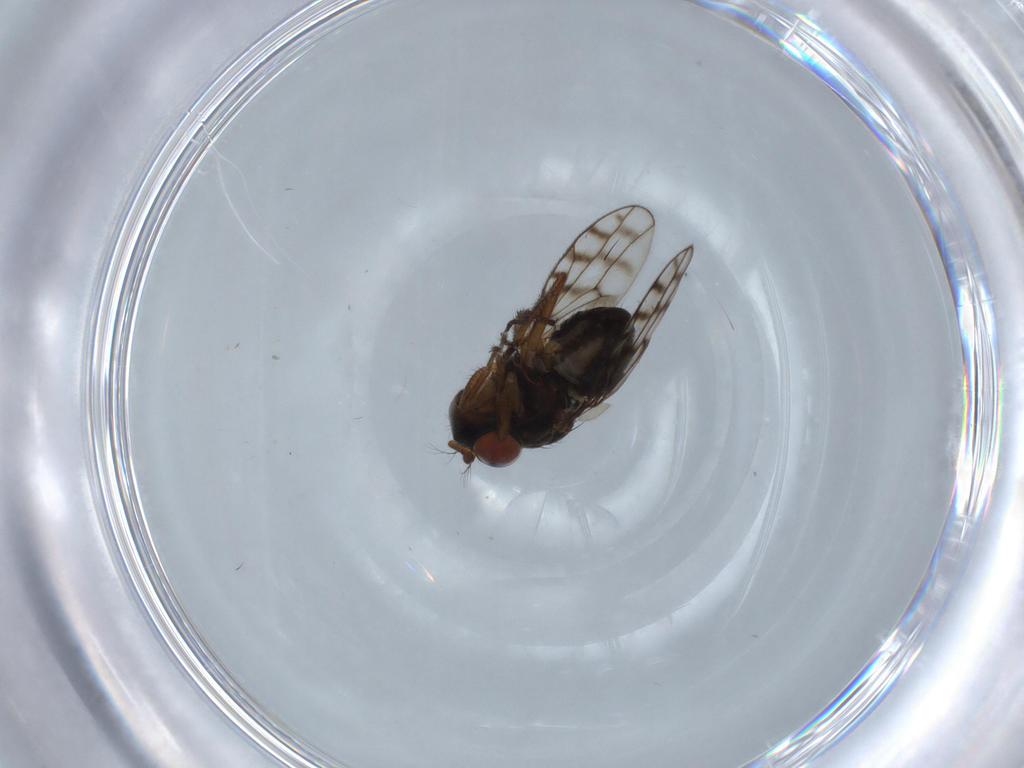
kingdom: Animalia
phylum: Arthropoda
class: Insecta
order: Diptera
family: Ephydridae
